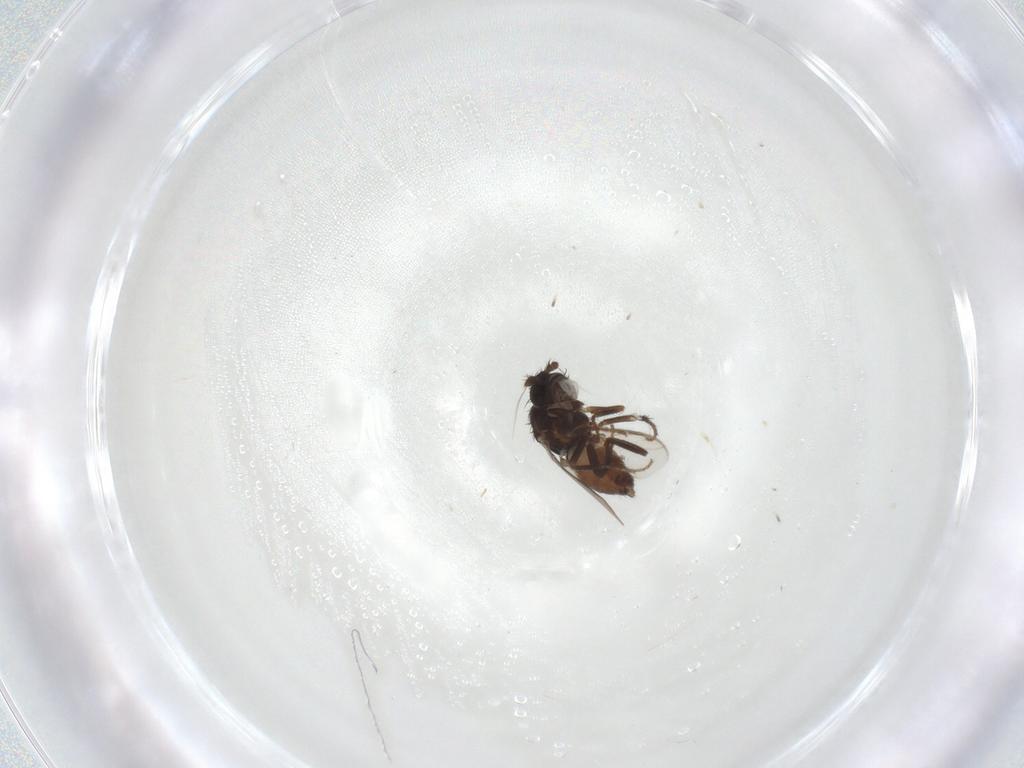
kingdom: Animalia
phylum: Arthropoda
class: Insecta
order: Diptera
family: Sphaeroceridae
